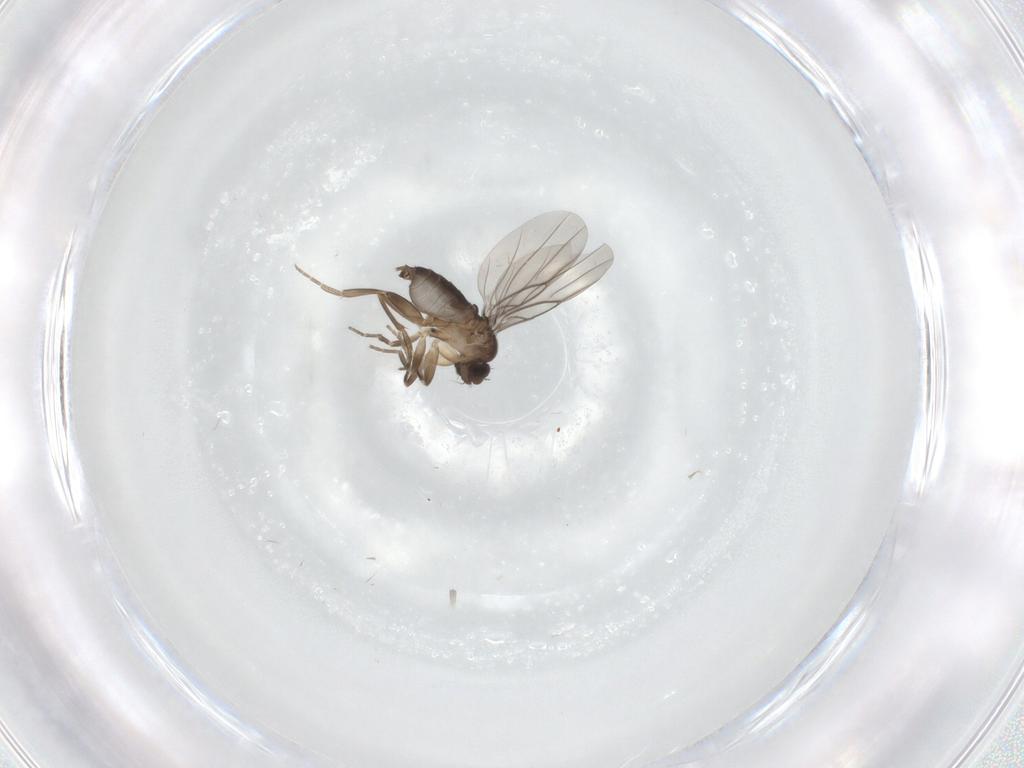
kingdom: Animalia
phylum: Arthropoda
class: Insecta
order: Diptera
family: Phoridae
